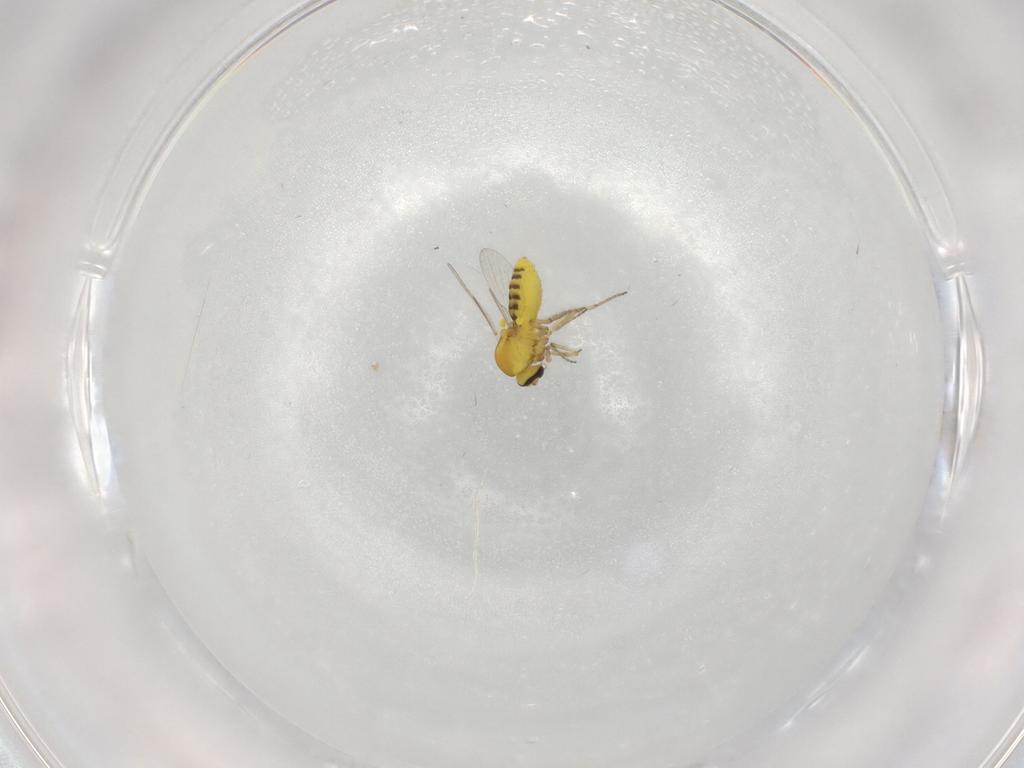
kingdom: Animalia
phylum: Arthropoda
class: Insecta
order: Diptera
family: Ceratopogonidae
